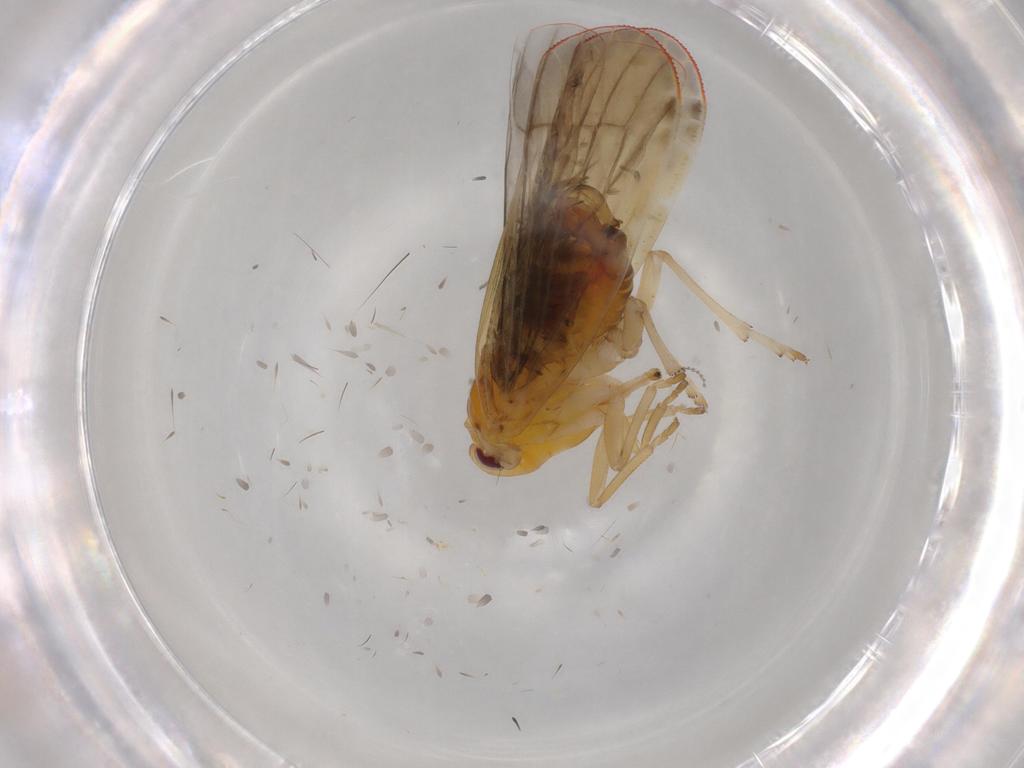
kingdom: Animalia
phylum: Arthropoda
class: Insecta
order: Hemiptera
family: Derbidae
